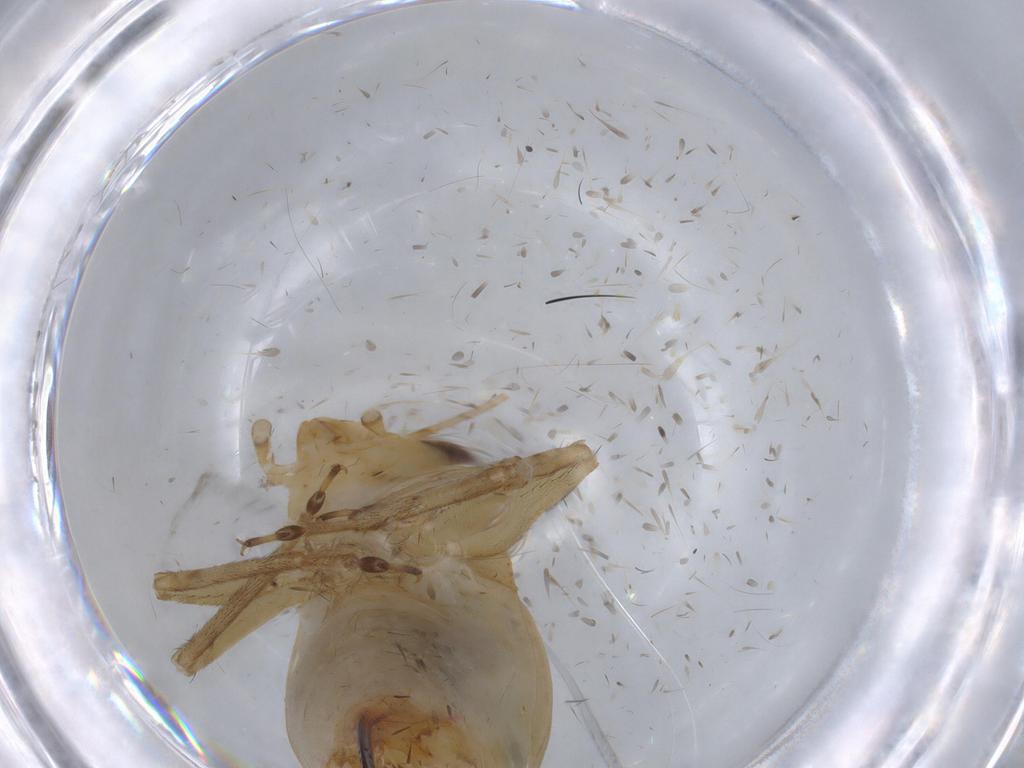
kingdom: Animalia
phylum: Arthropoda
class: Insecta
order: Orthoptera
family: Trigonidiidae
